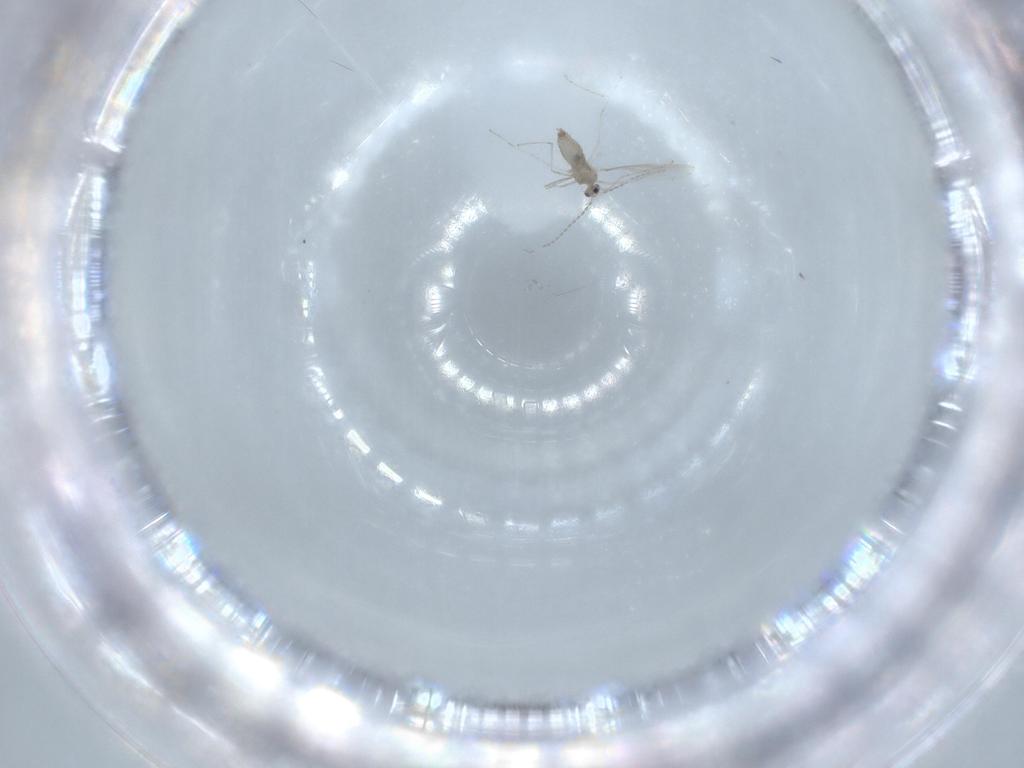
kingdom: Animalia
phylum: Arthropoda
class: Insecta
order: Diptera
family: Cecidomyiidae
